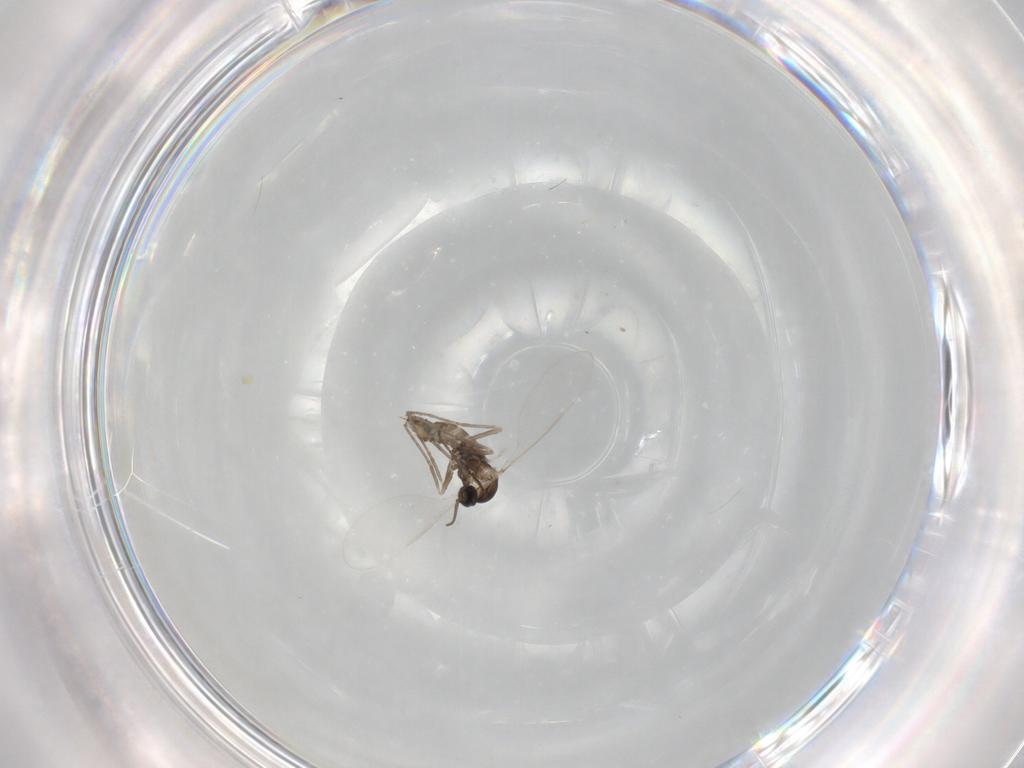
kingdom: Animalia
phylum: Arthropoda
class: Insecta
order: Diptera
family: Cecidomyiidae
